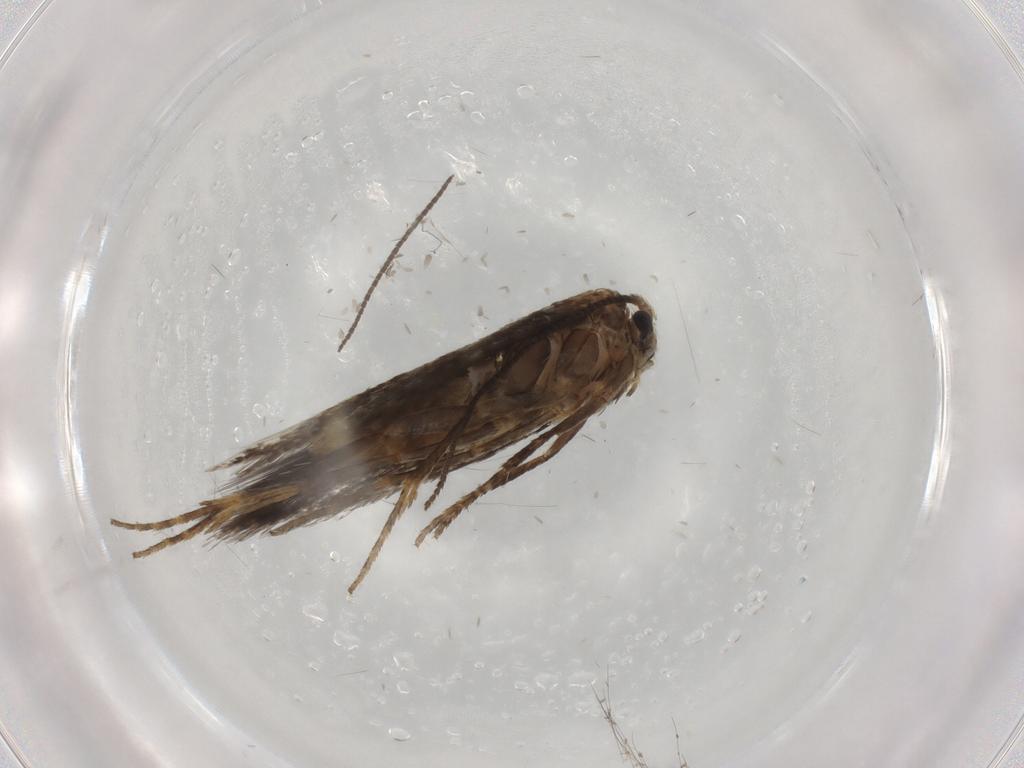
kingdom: Animalia
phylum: Arthropoda
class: Insecta
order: Lepidoptera
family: Nepticulidae
